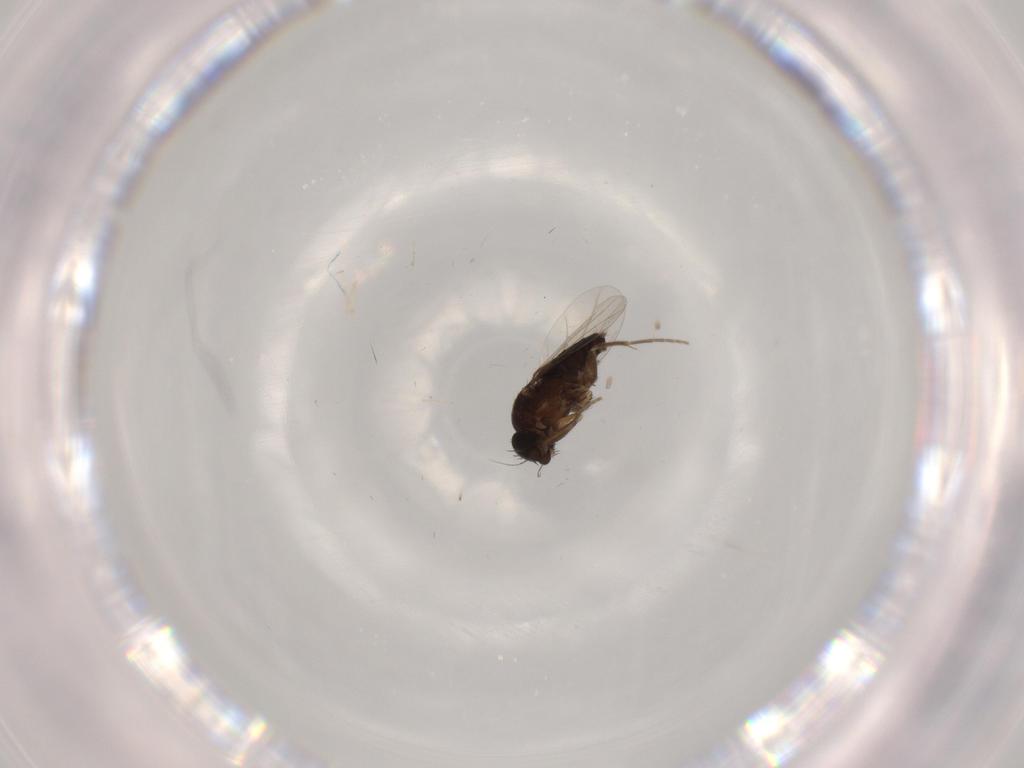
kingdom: Animalia
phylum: Arthropoda
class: Insecta
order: Diptera
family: Phoridae
